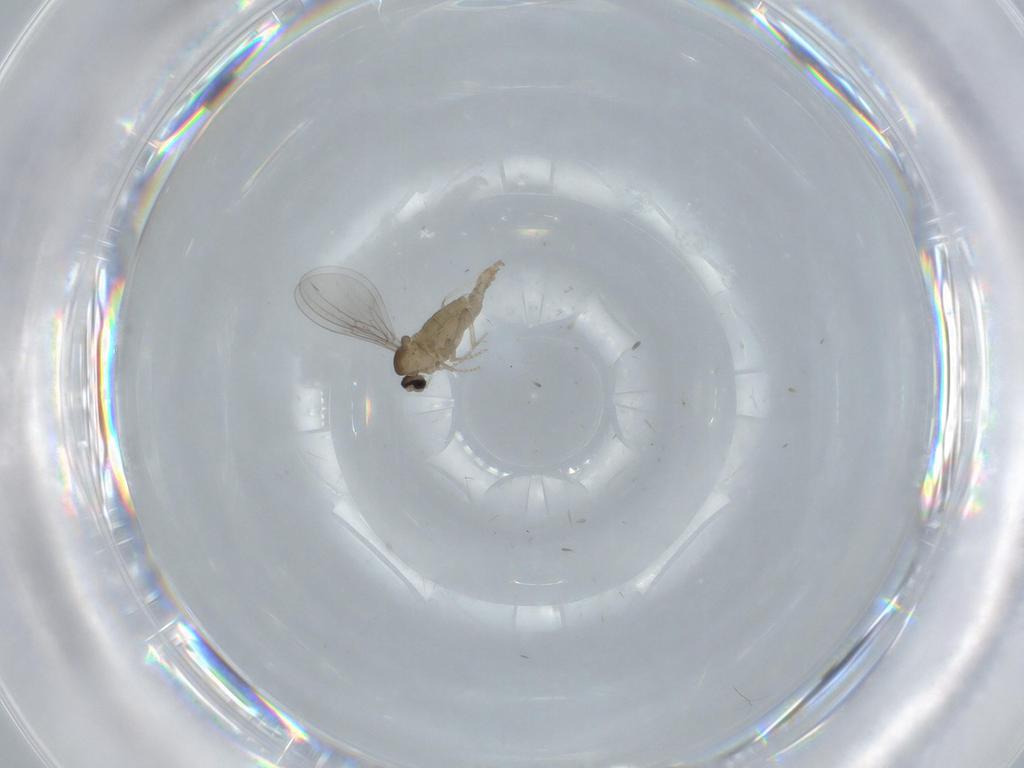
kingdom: Animalia
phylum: Arthropoda
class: Insecta
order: Diptera
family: Cecidomyiidae
